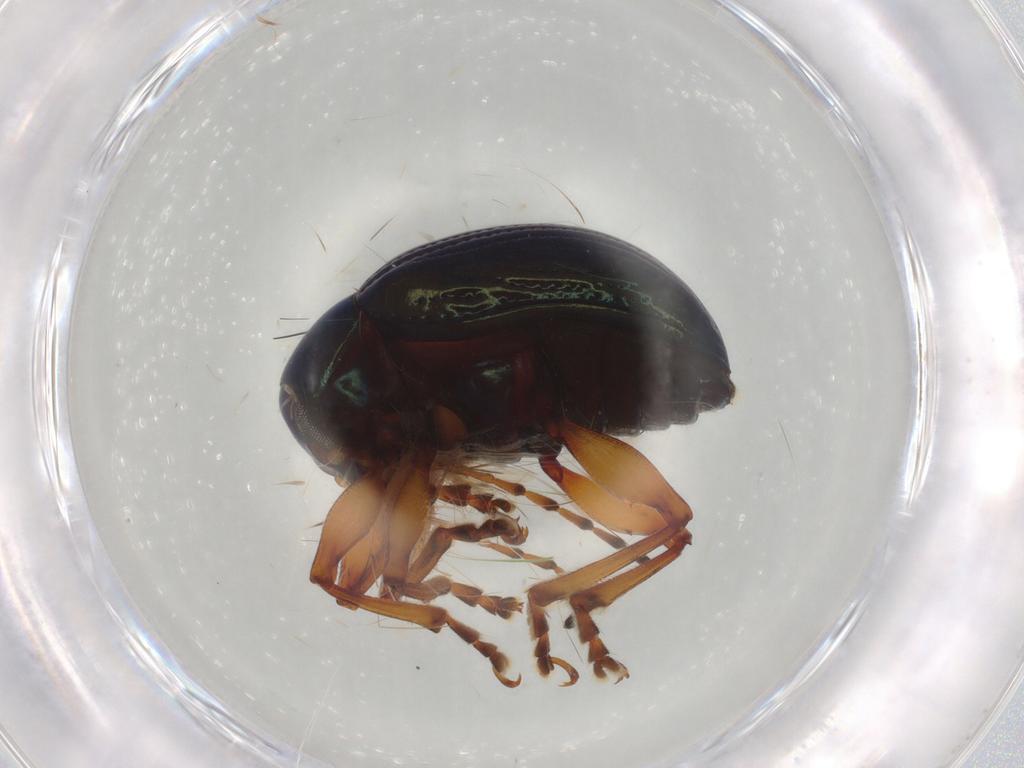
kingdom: Animalia
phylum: Arthropoda
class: Insecta
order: Coleoptera
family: Chrysomelidae
